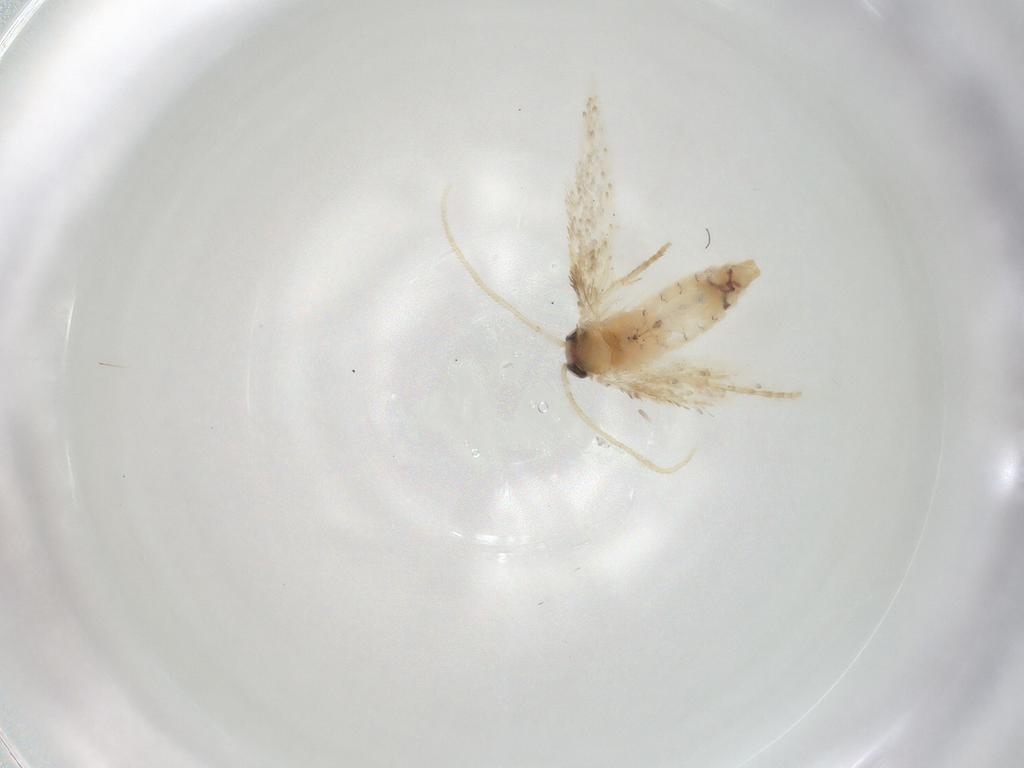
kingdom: Animalia
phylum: Arthropoda
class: Insecta
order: Lepidoptera
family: Nepticulidae
